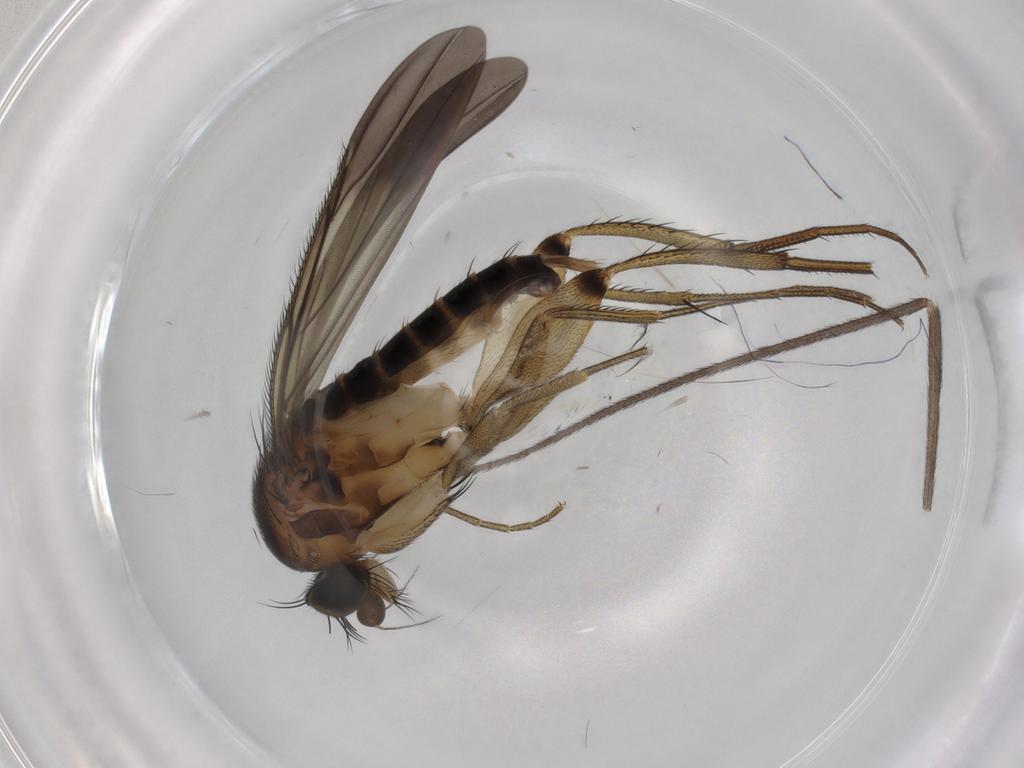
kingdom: Animalia
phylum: Arthropoda
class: Insecta
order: Diptera
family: Phoridae
